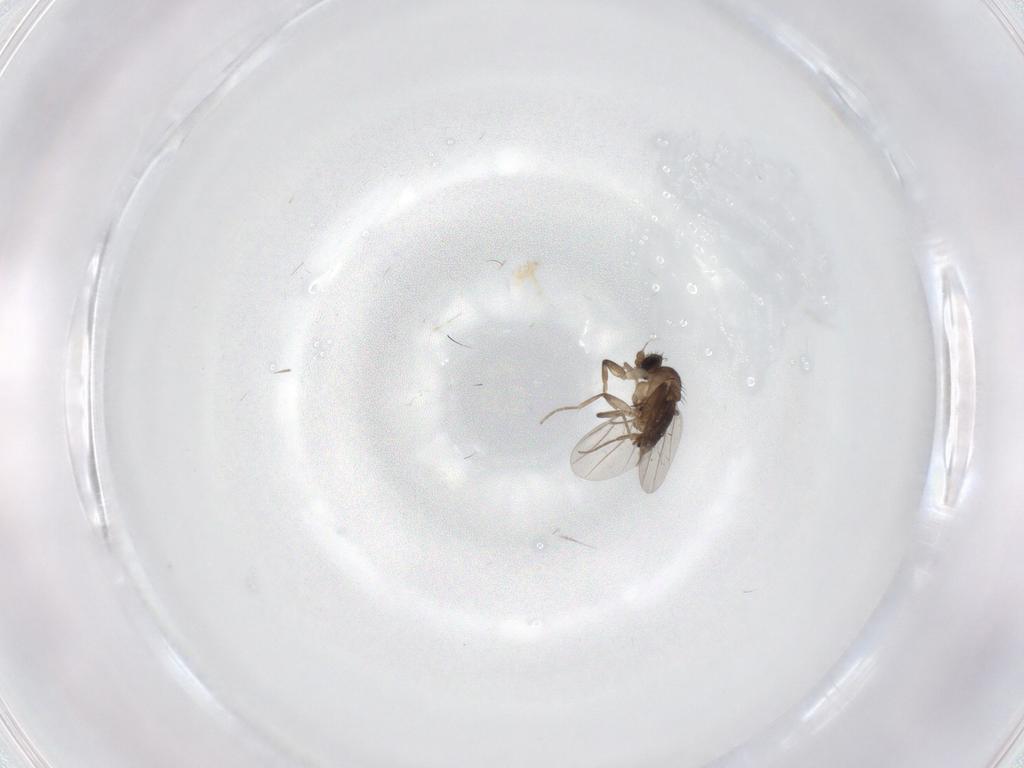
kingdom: Animalia
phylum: Arthropoda
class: Insecta
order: Diptera
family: Phoridae
